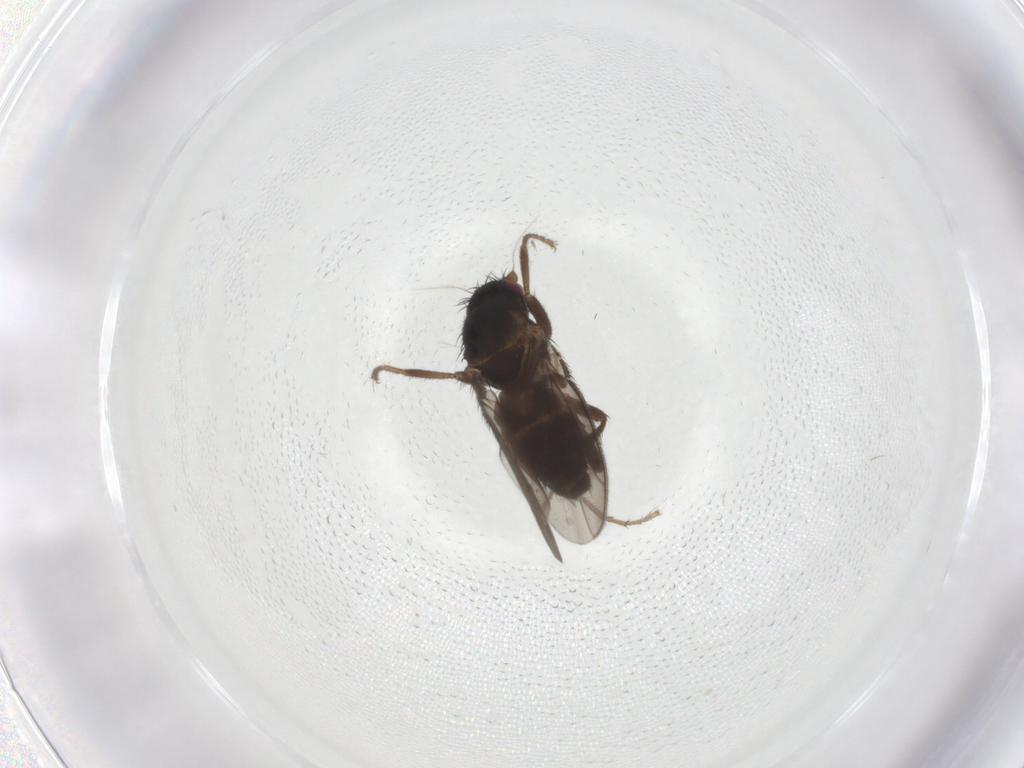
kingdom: Animalia
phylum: Arthropoda
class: Insecta
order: Diptera
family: Sphaeroceridae
